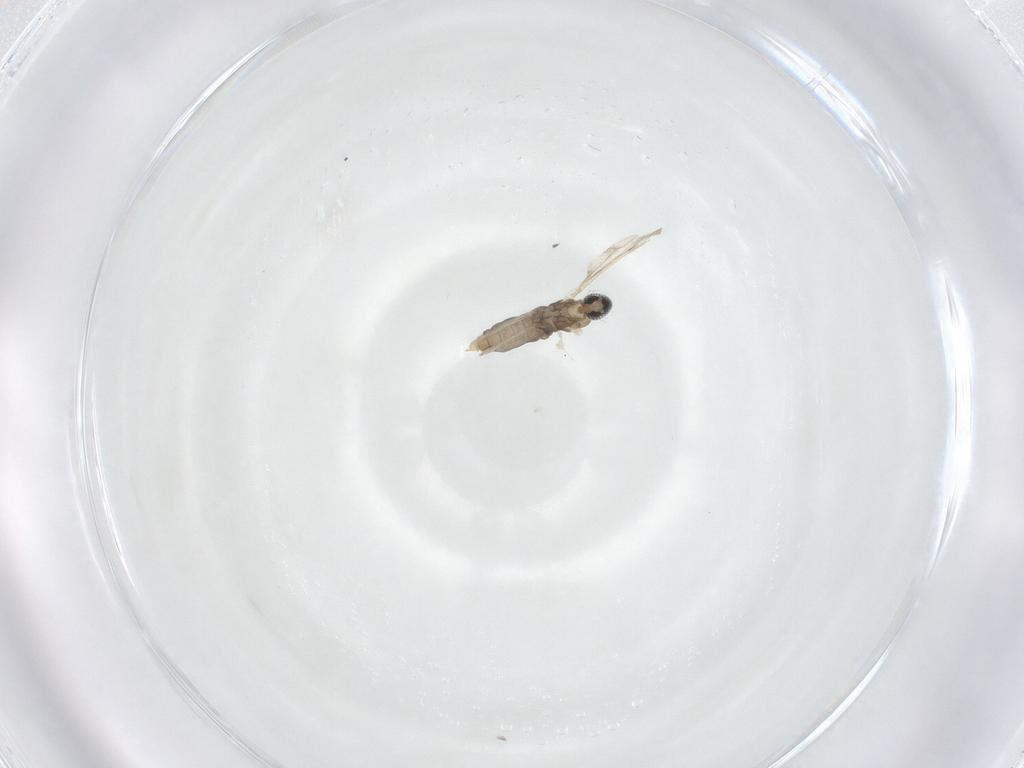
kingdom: Animalia
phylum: Arthropoda
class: Insecta
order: Diptera
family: Cecidomyiidae
